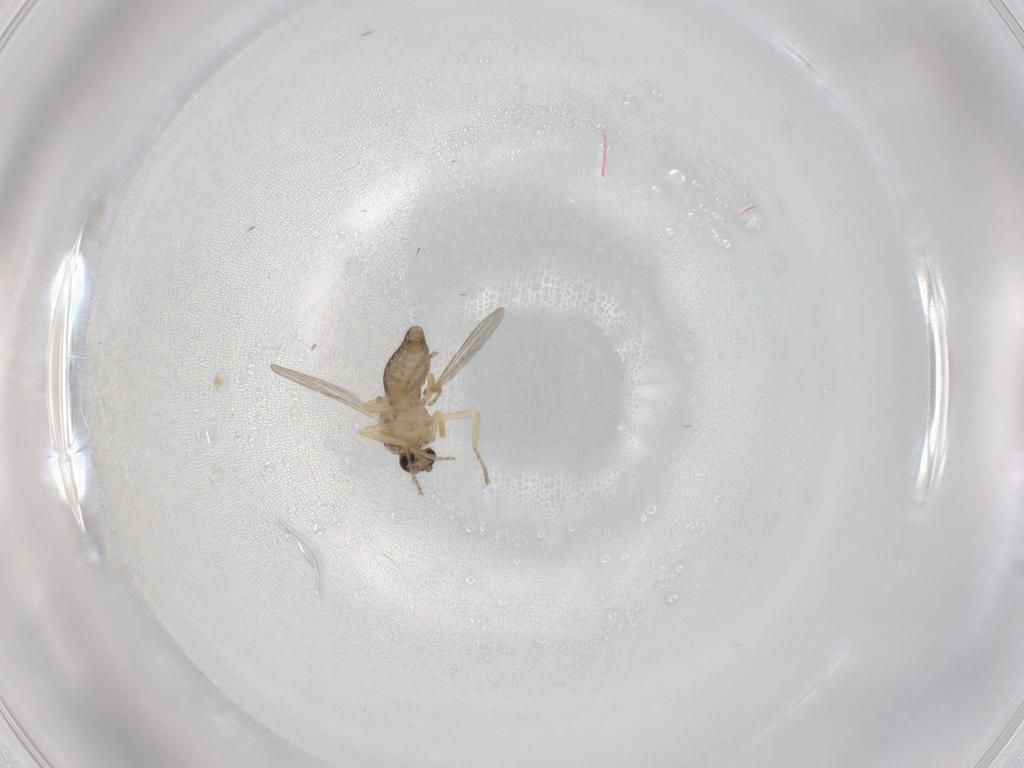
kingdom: Animalia
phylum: Arthropoda
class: Insecta
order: Diptera
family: Ceratopogonidae
